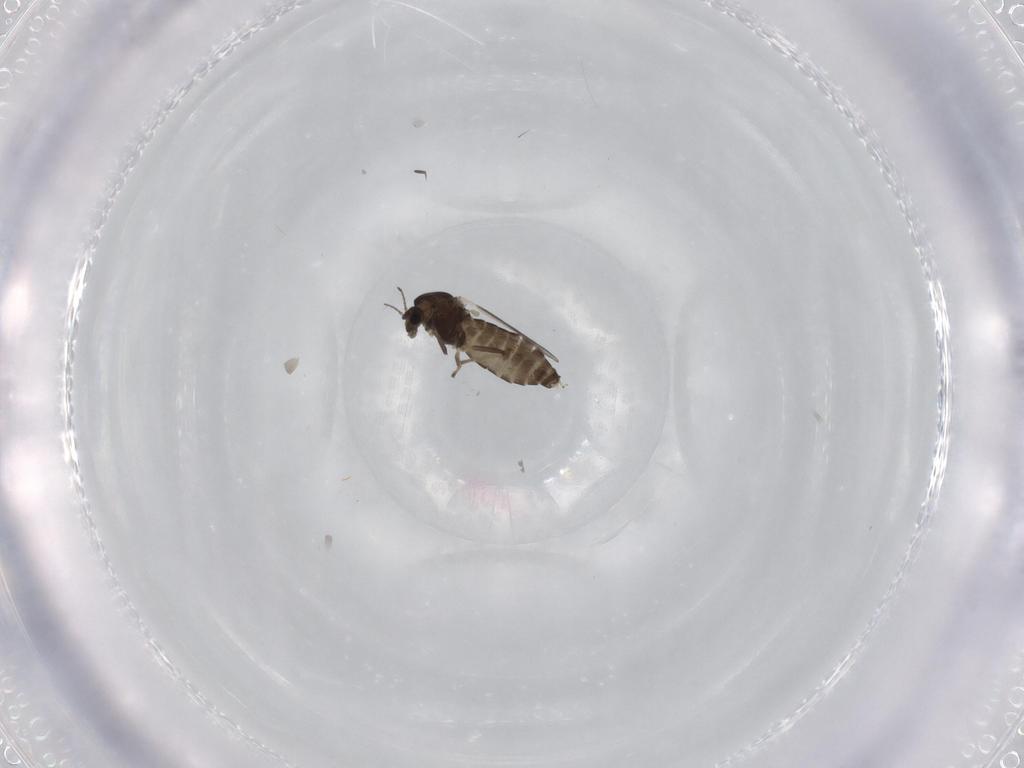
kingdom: Animalia
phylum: Arthropoda
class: Insecta
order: Diptera
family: Chironomidae
